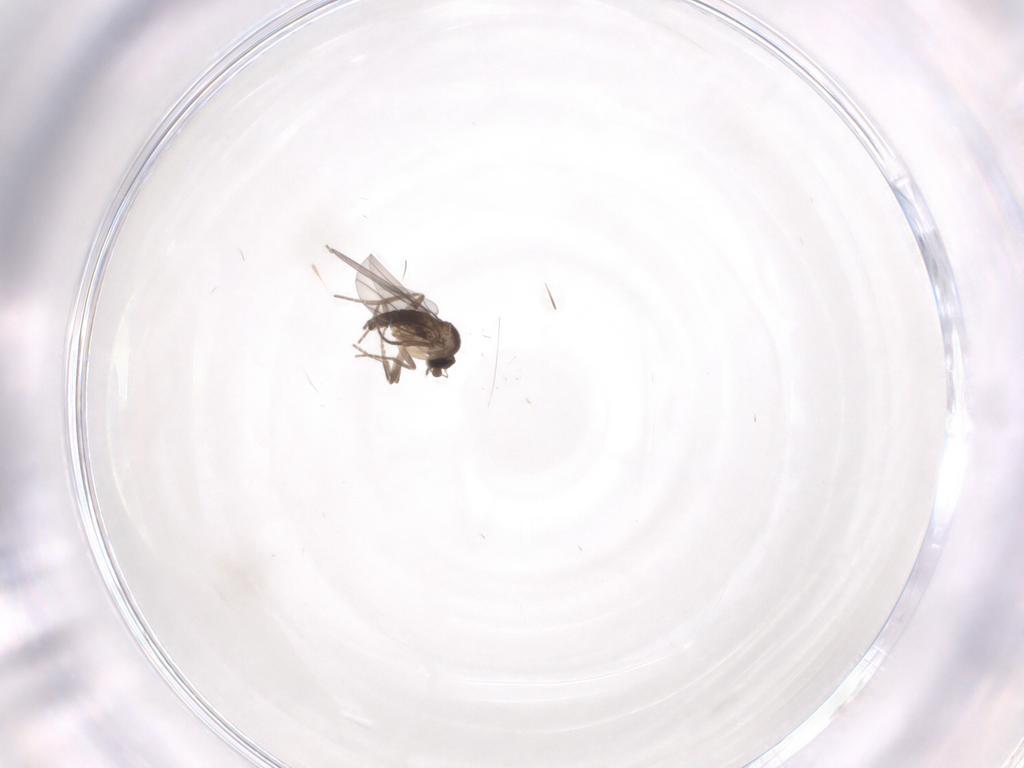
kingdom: Animalia
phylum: Arthropoda
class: Insecta
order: Diptera
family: Phoridae
